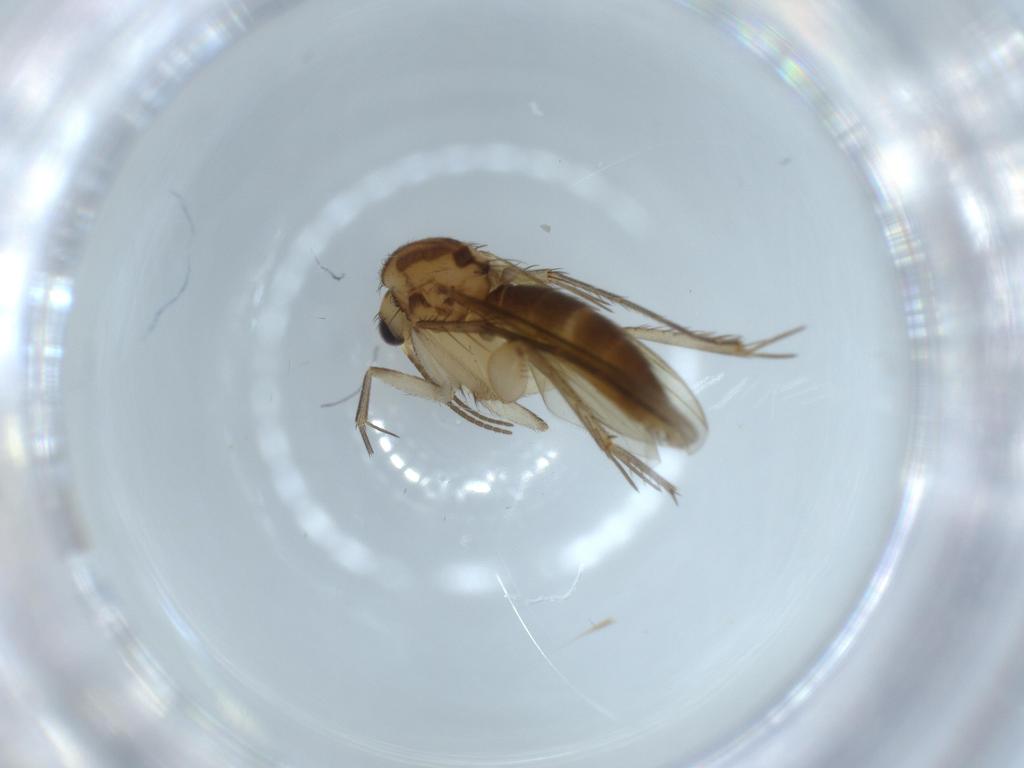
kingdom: Animalia
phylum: Arthropoda
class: Insecta
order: Diptera
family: Mycetophilidae
